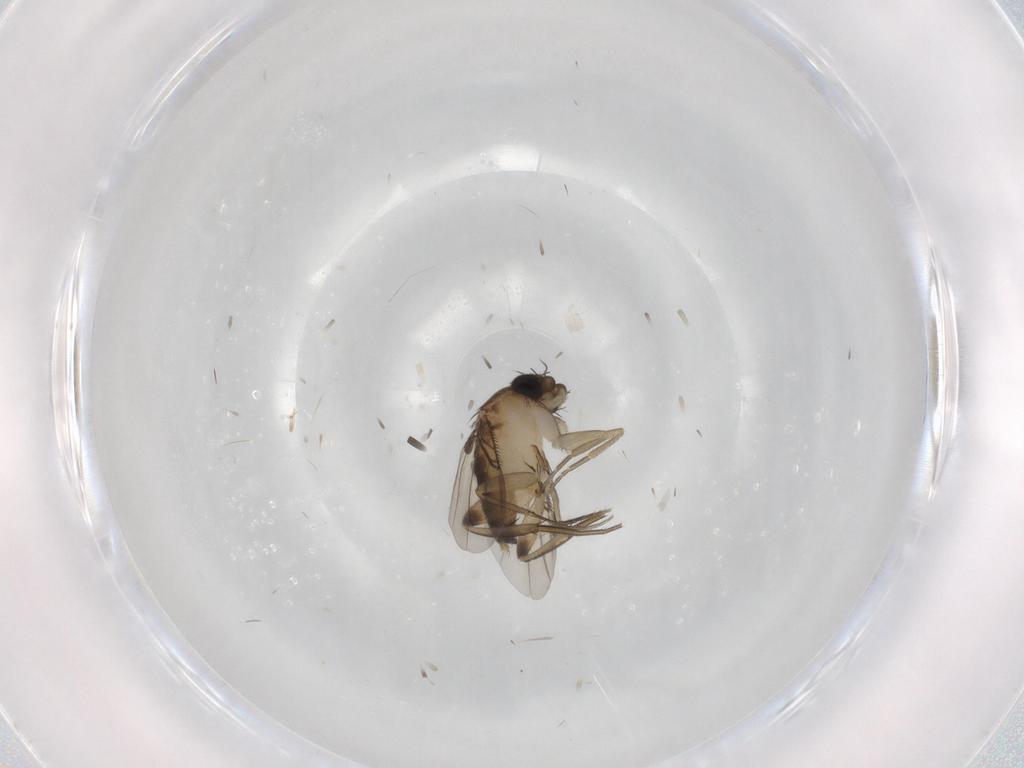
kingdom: Animalia
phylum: Arthropoda
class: Insecta
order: Diptera
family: Phoridae
